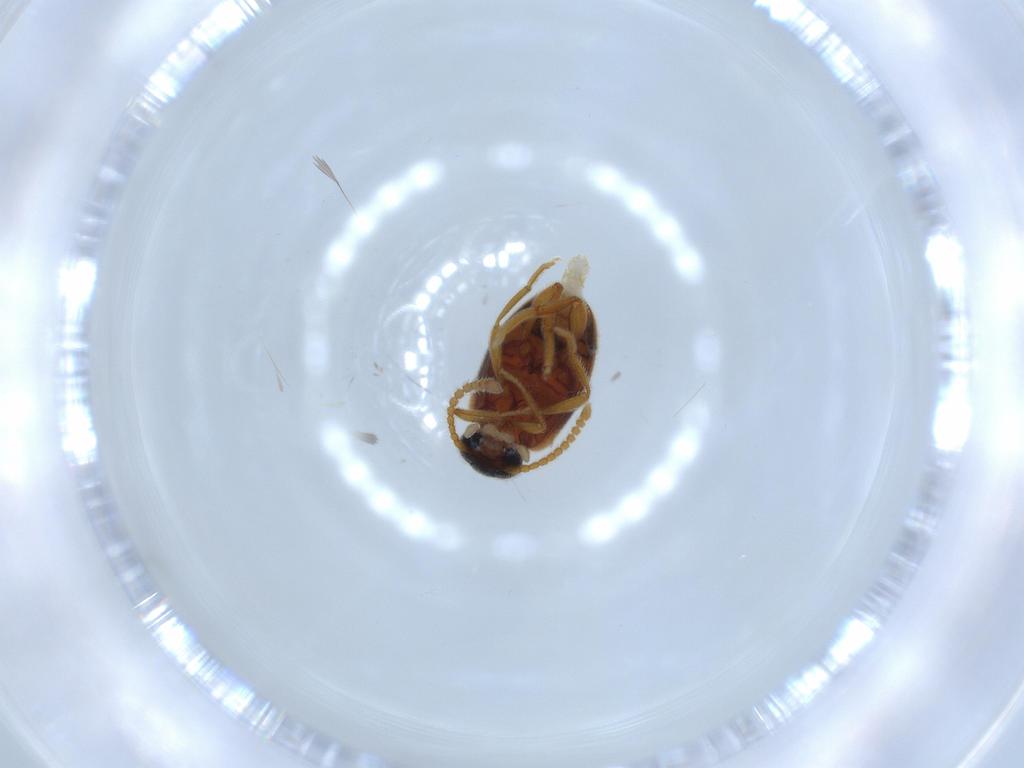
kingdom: Animalia
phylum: Arthropoda
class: Insecta
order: Coleoptera
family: Aderidae
